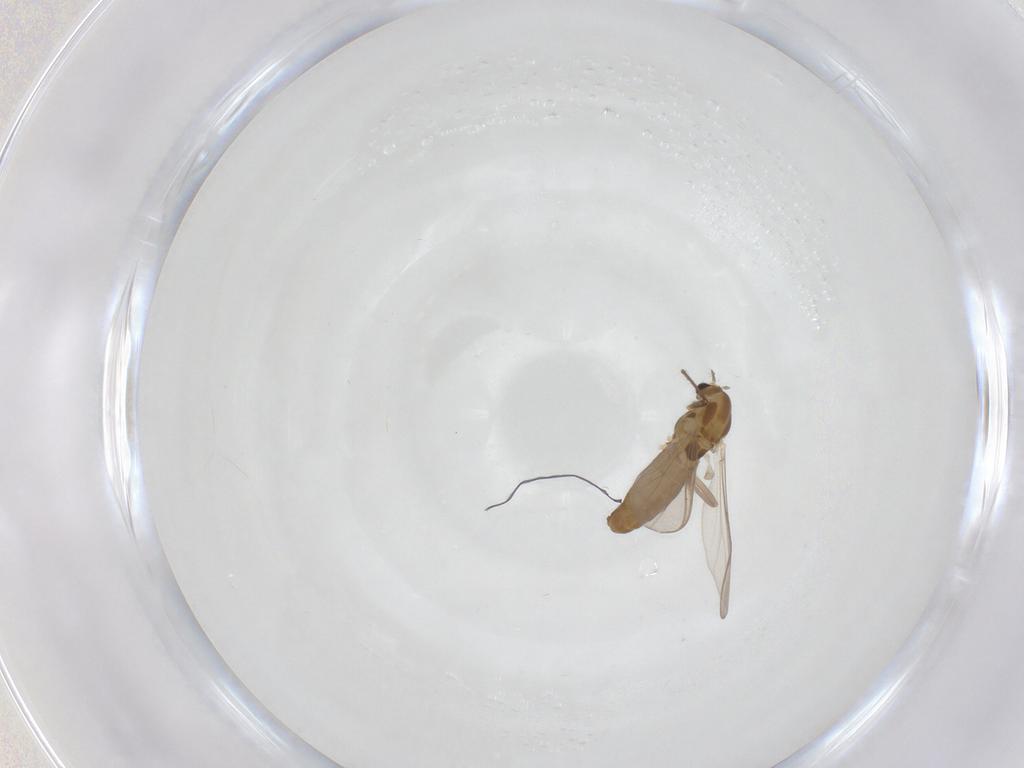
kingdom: Animalia
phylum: Arthropoda
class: Insecta
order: Diptera
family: Chironomidae
